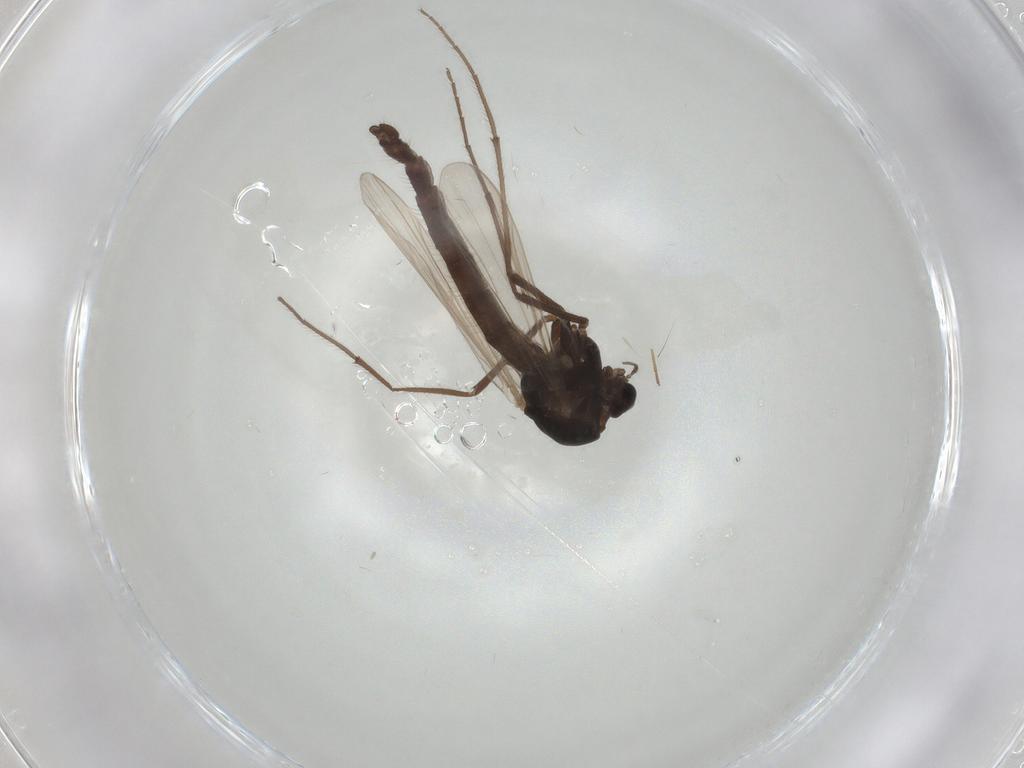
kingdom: Animalia
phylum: Arthropoda
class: Insecta
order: Diptera
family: Chironomidae
